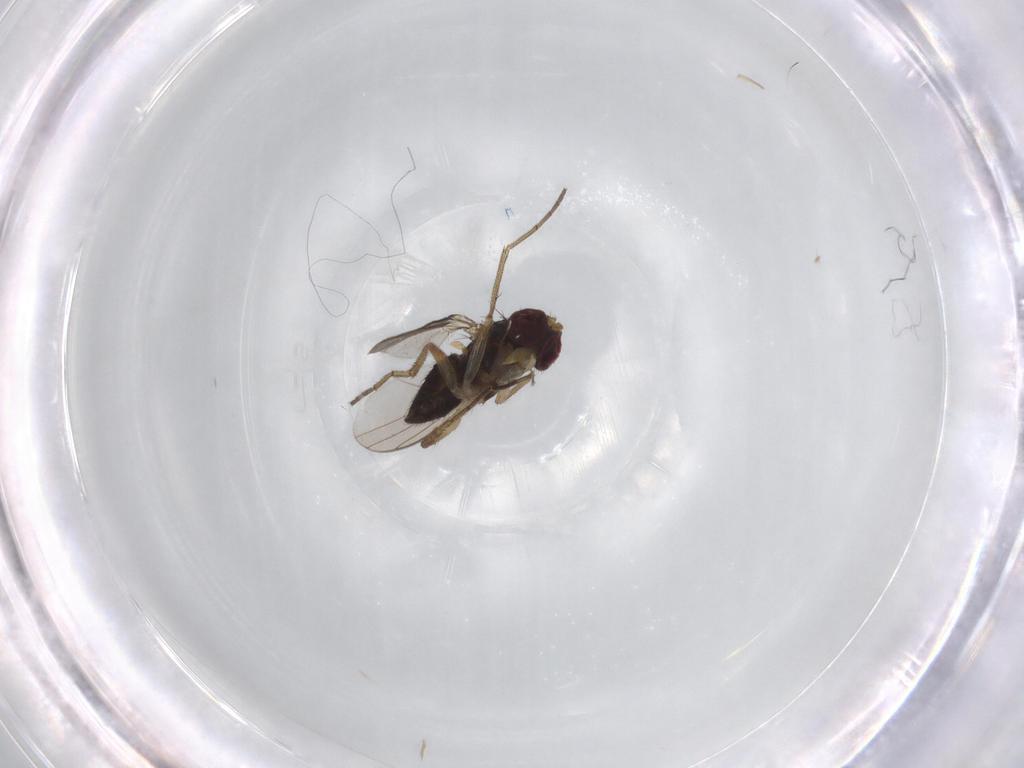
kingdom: Animalia
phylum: Arthropoda
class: Insecta
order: Diptera
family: Dolichopodidae
